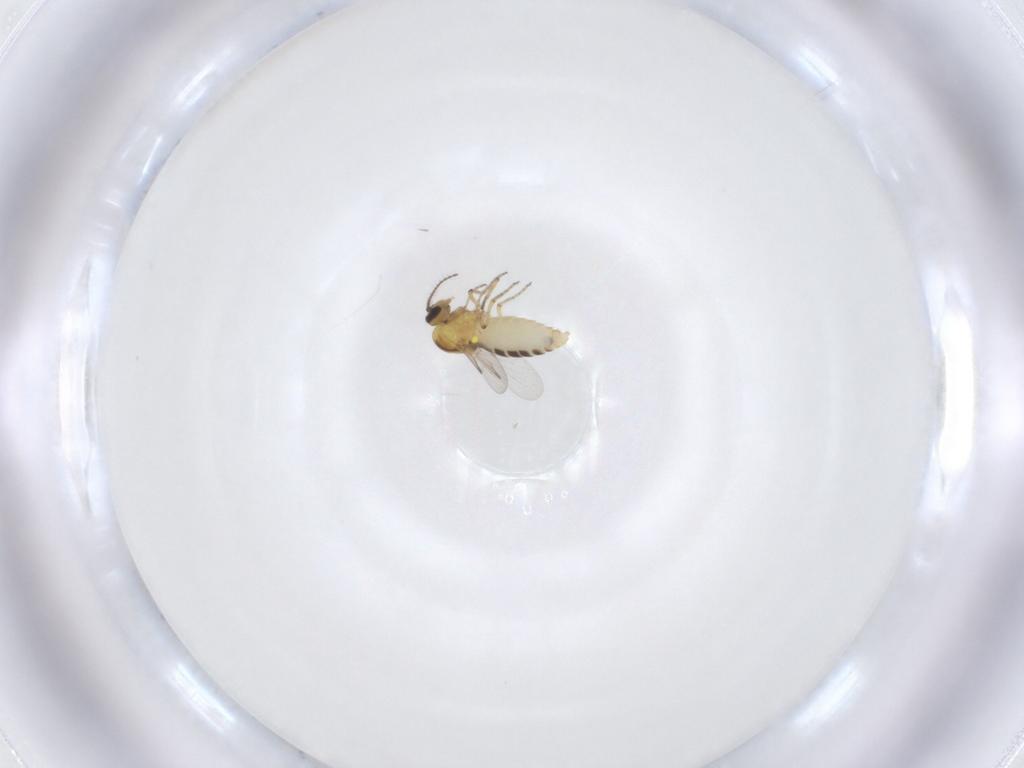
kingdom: Animalia
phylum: Arthropoda
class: Insecta
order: Diptera
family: Ceratopogonidae
